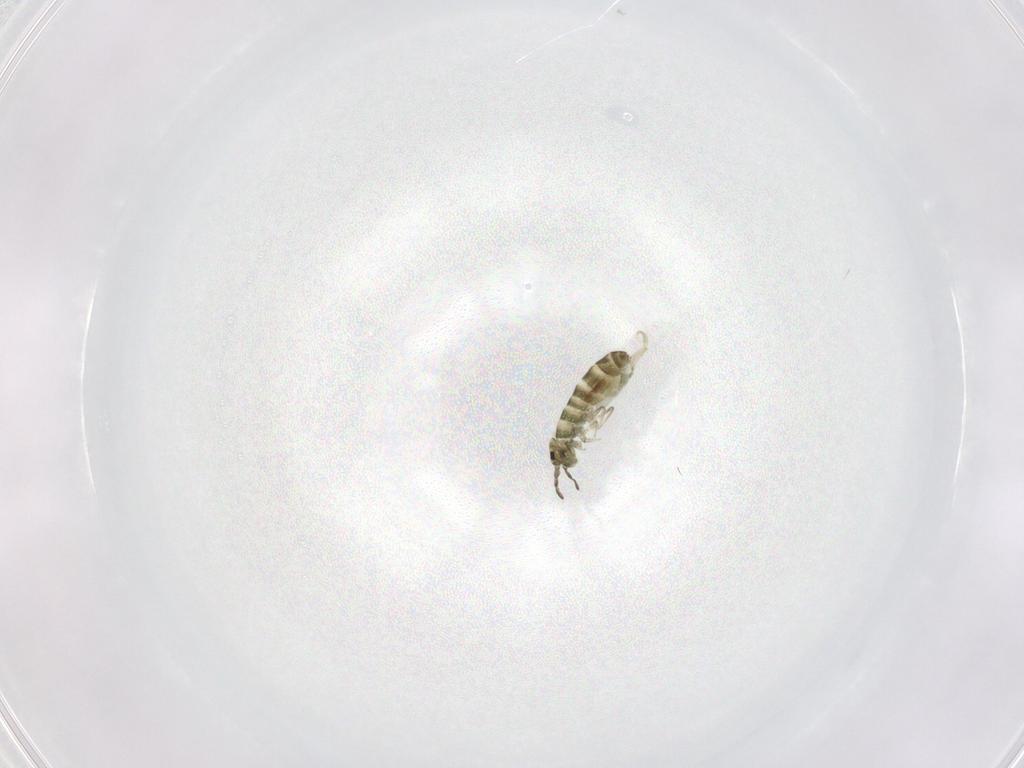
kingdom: Animalia
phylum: Arthropoda
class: Collembola
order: Entomobryomorpha
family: Isotomidae
